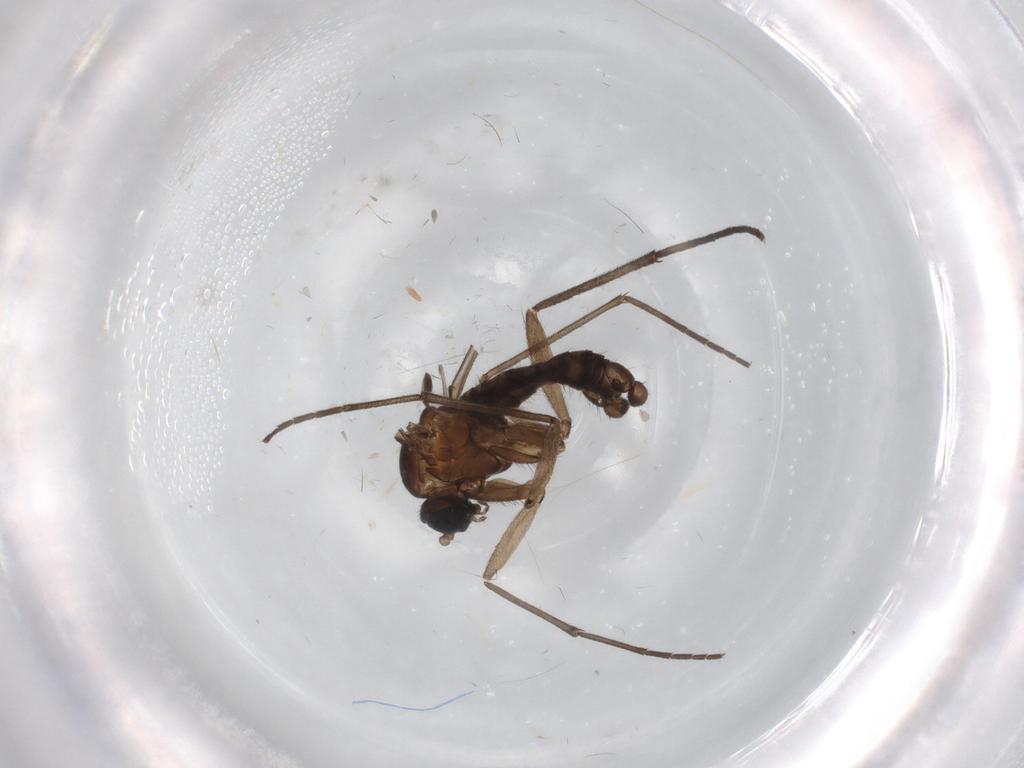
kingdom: Animalia
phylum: Arthropoda
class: Insecta
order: Diptera
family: Sciaridae
